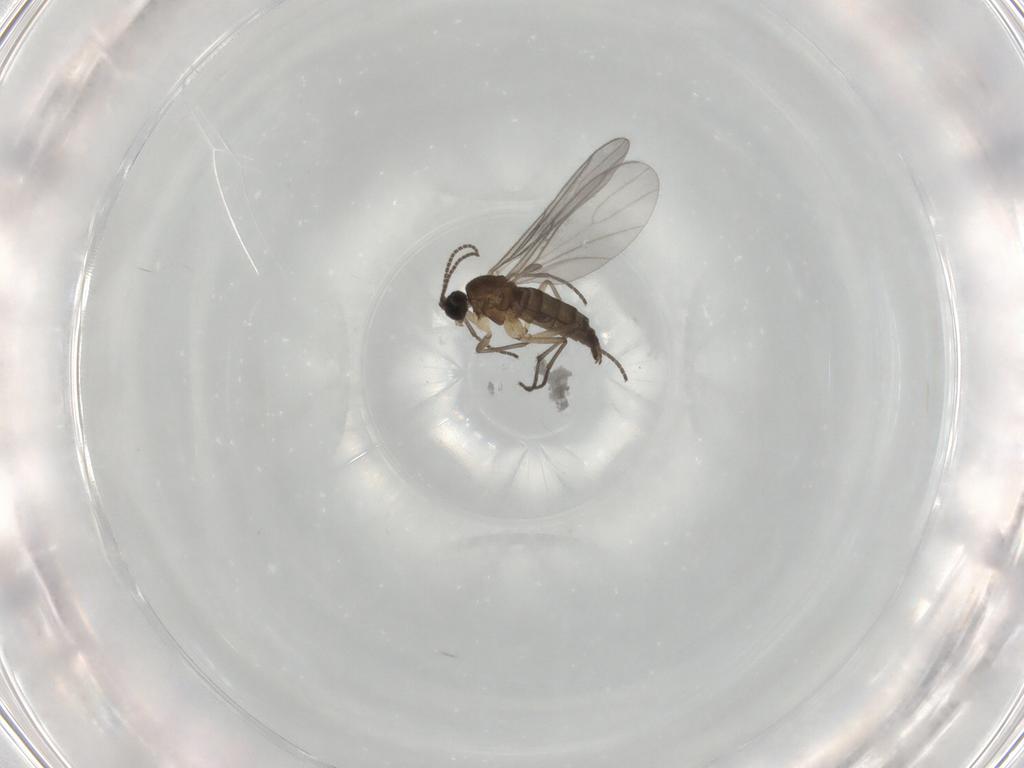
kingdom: Animalia
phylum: Arthropoda
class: Insecta
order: Diptera
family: Sciaridae
